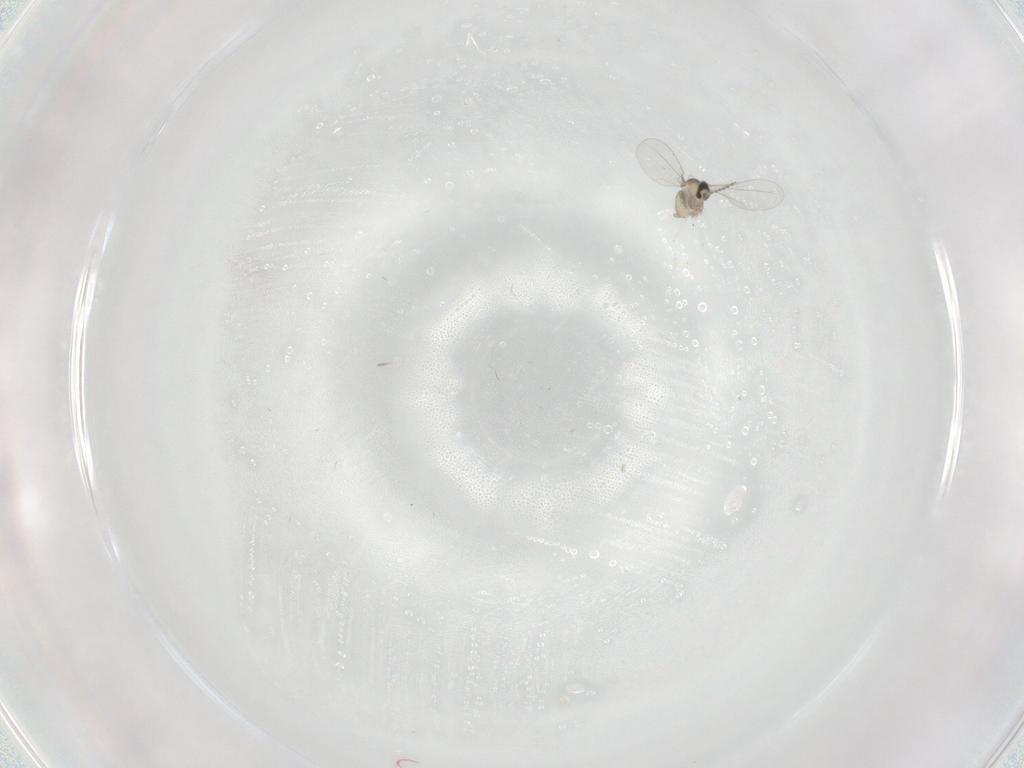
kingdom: Animalia
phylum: Arthropoda
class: Insecta
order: Diptera
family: Cecidomyiidae
